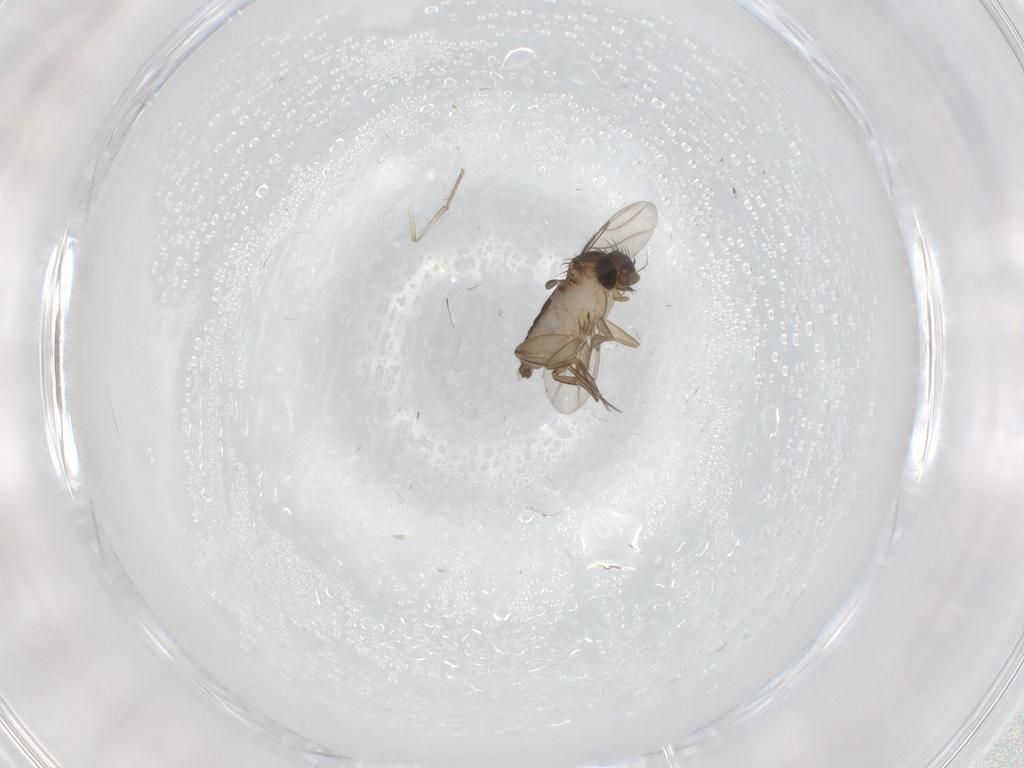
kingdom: Animalia
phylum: Arthropoda
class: Insecta
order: Diptera
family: Phoridae
